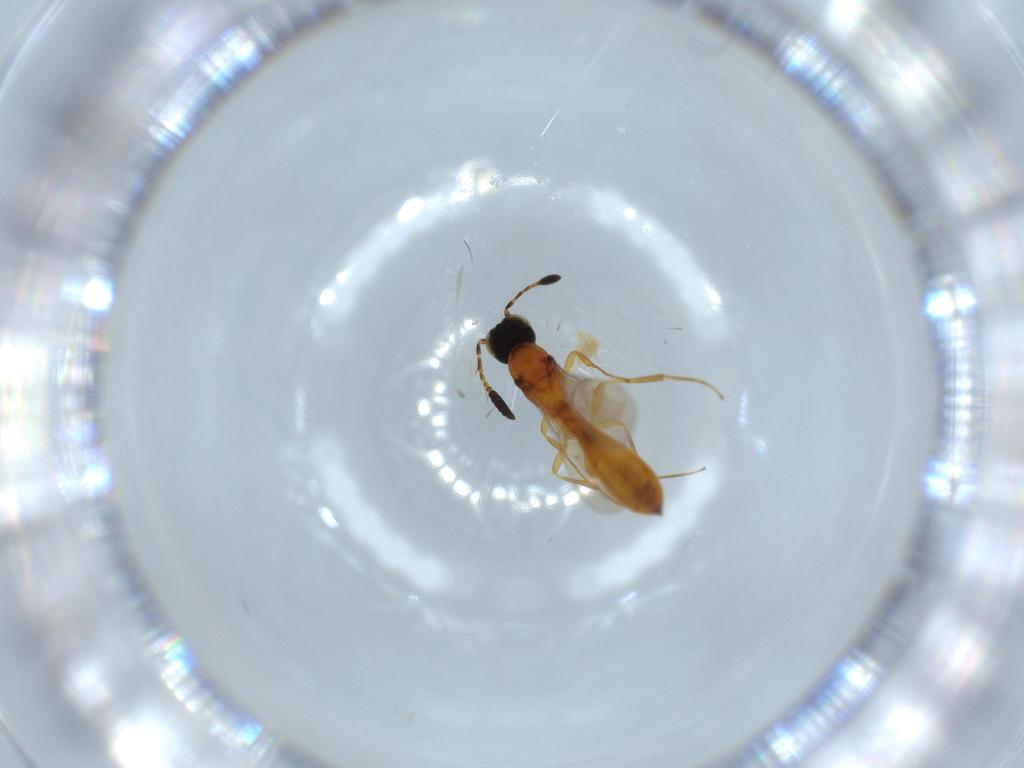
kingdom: Animalia
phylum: Arthropoda
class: Insecta
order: Hymenoptera
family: Scelionidae
